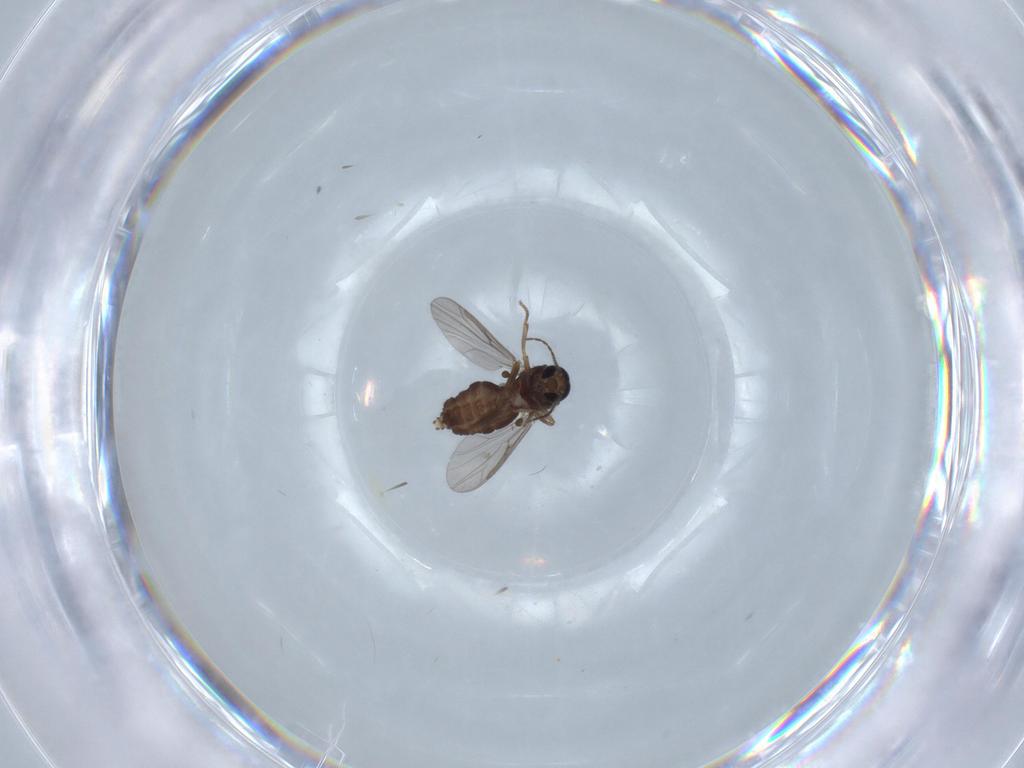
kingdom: Animalia
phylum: Arthropoda
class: Insecta
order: Diptera
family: Ceratopogonidae
